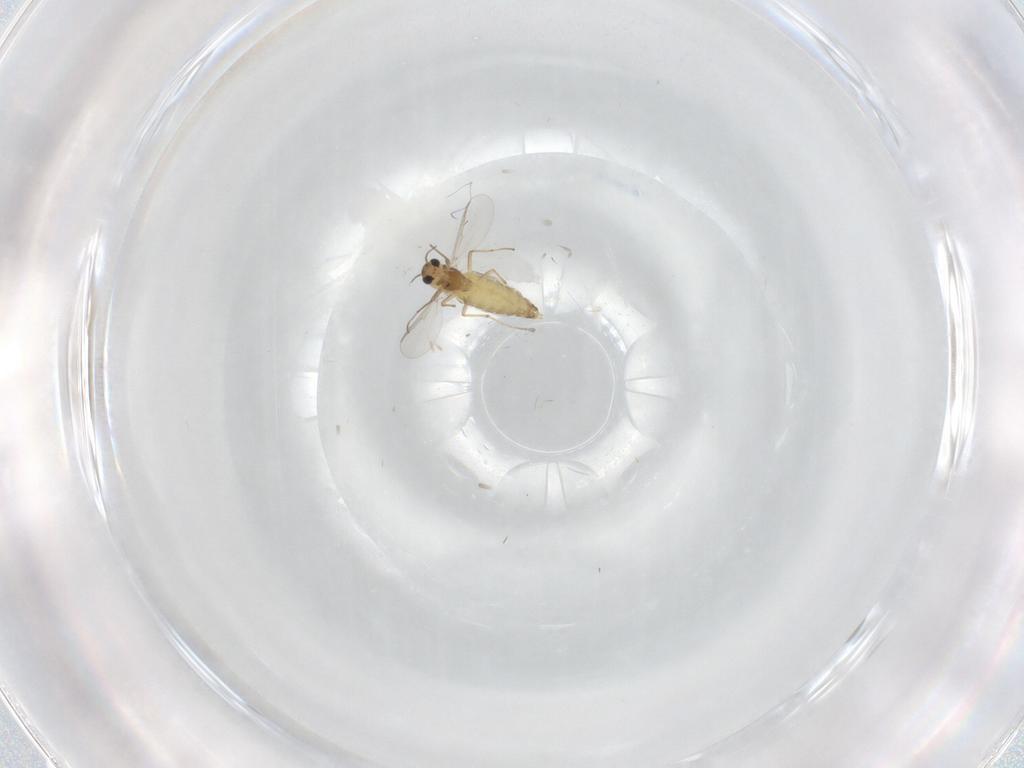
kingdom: Animalia
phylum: Arthropoda
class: Insecta
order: Diptera
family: Chironomidae
